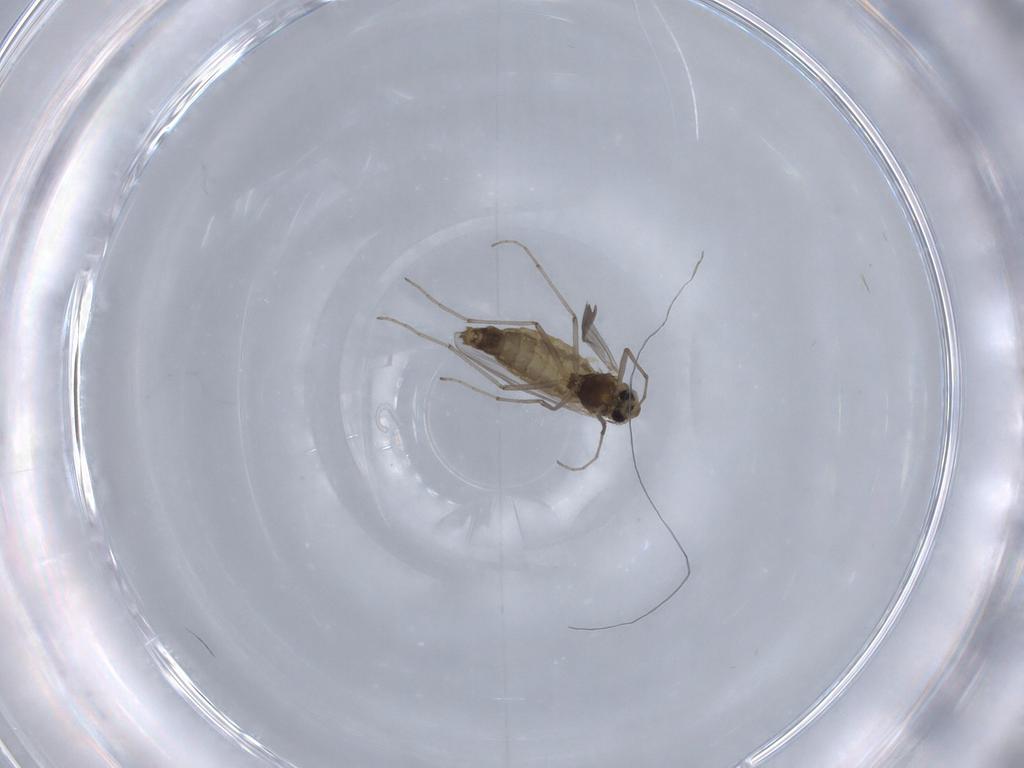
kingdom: Animalia
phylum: Arthropoda
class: Insecta
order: Diptera
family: Chironomidae
